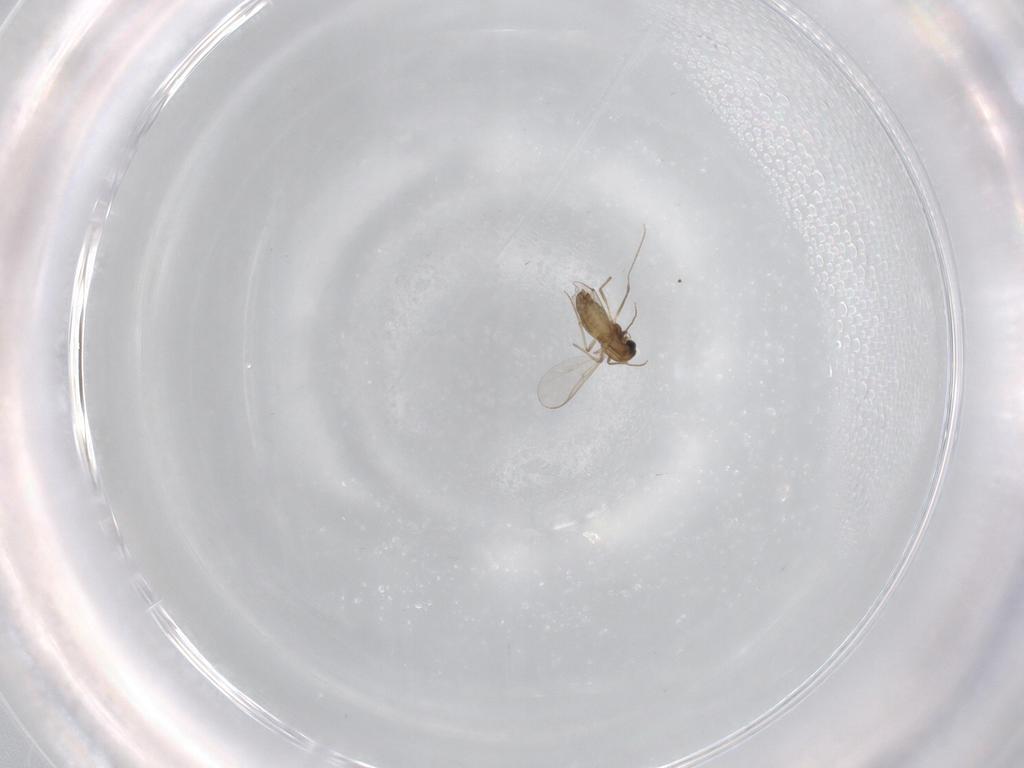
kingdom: Animalia
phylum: Arthropoda
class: Insecta
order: Diptera
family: Chironomidae
